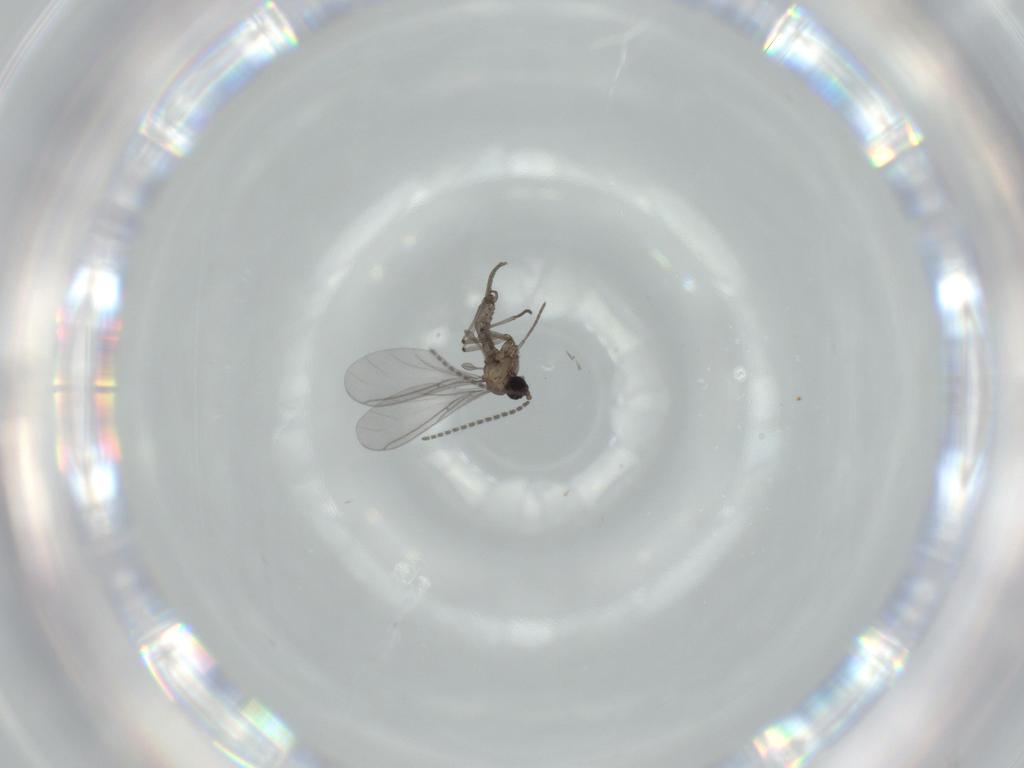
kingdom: Animalia
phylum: Arthropoda
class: Insecta
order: Diptera
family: Sciaridae
